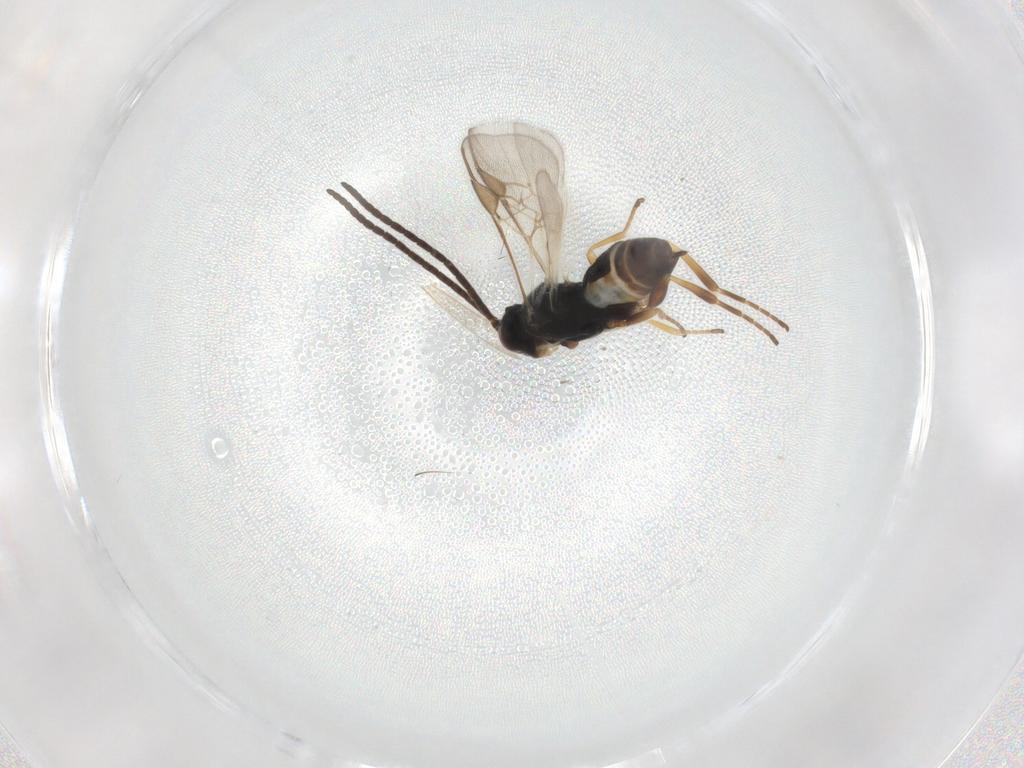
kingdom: Animalia
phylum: Arthropoda
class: Insecta
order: Hymenoptera
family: Braconidae
